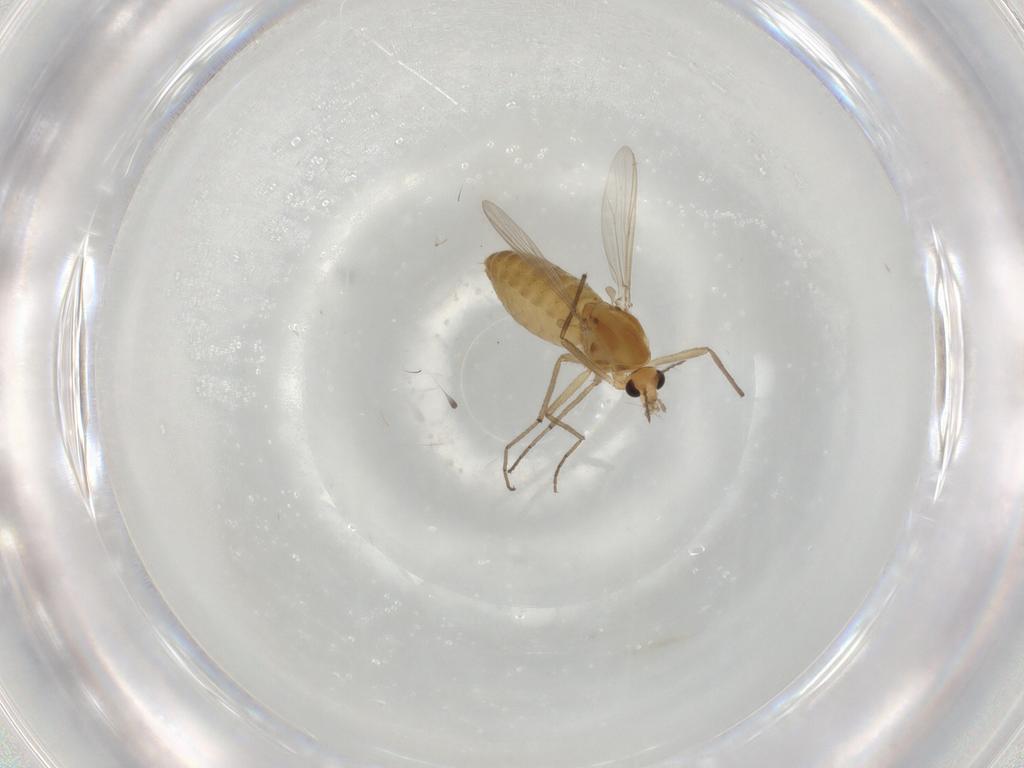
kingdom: Animalia
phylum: Arthropoda
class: Insecta
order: Diptera
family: Chironomidae
